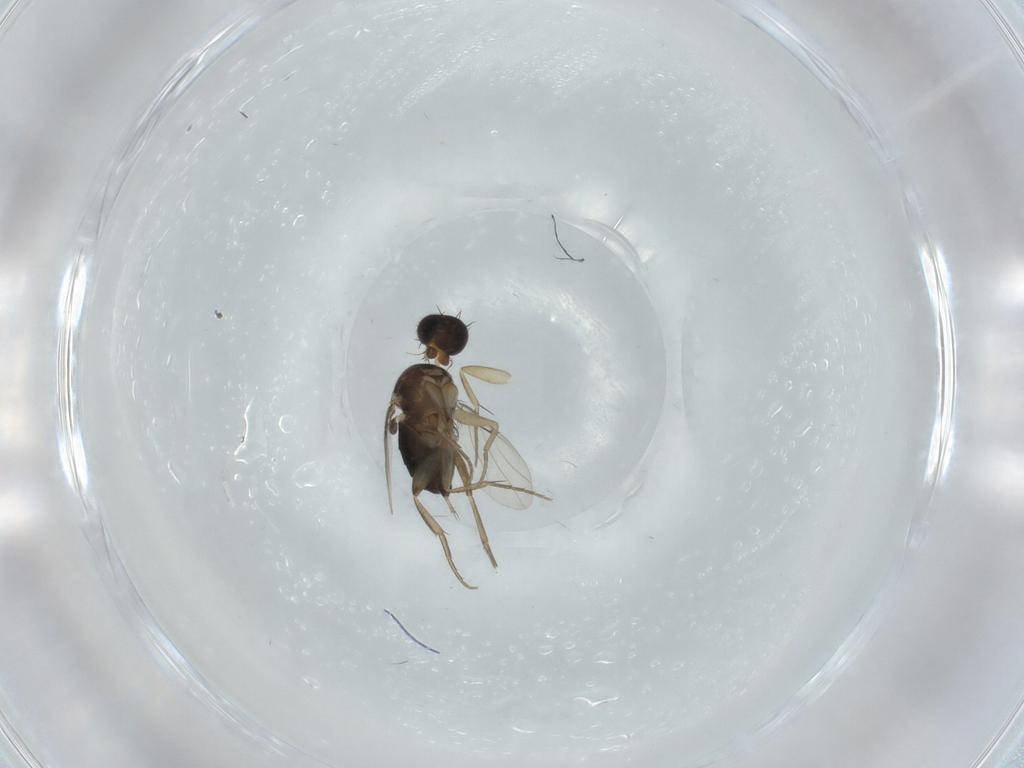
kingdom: Animalia
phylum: Arthropoda
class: Insecta
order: Diptera
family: Phoridae
